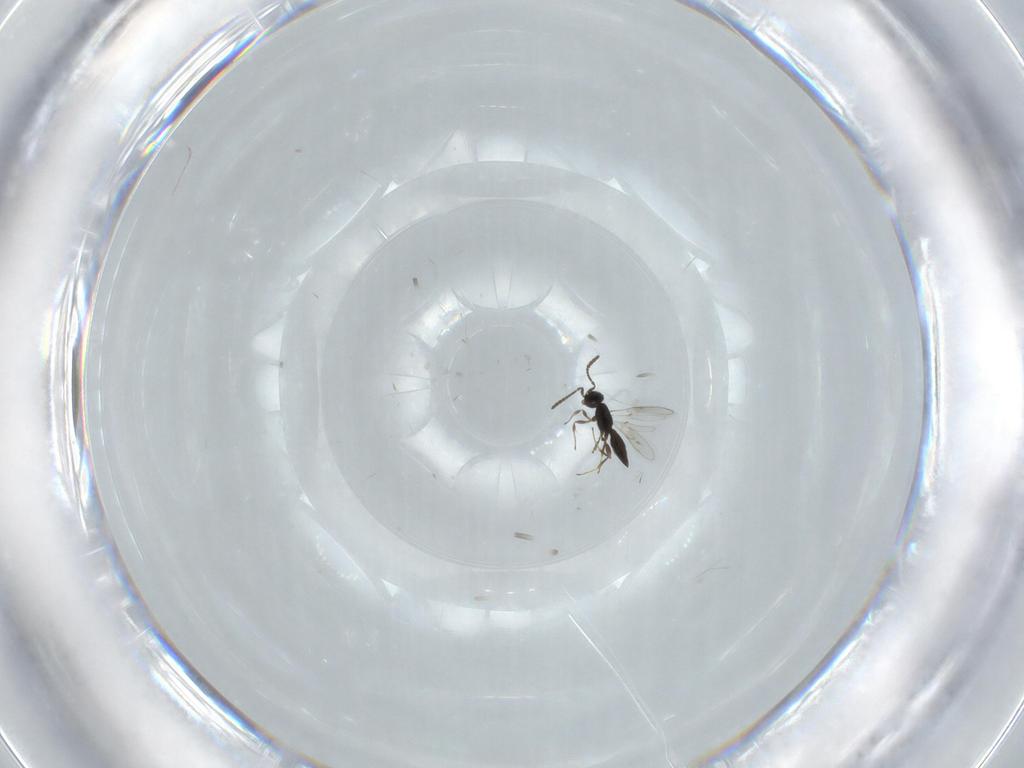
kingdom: Animalia
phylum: Arthropoda
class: Insecta
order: Hymenoptera
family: Scelionidae
